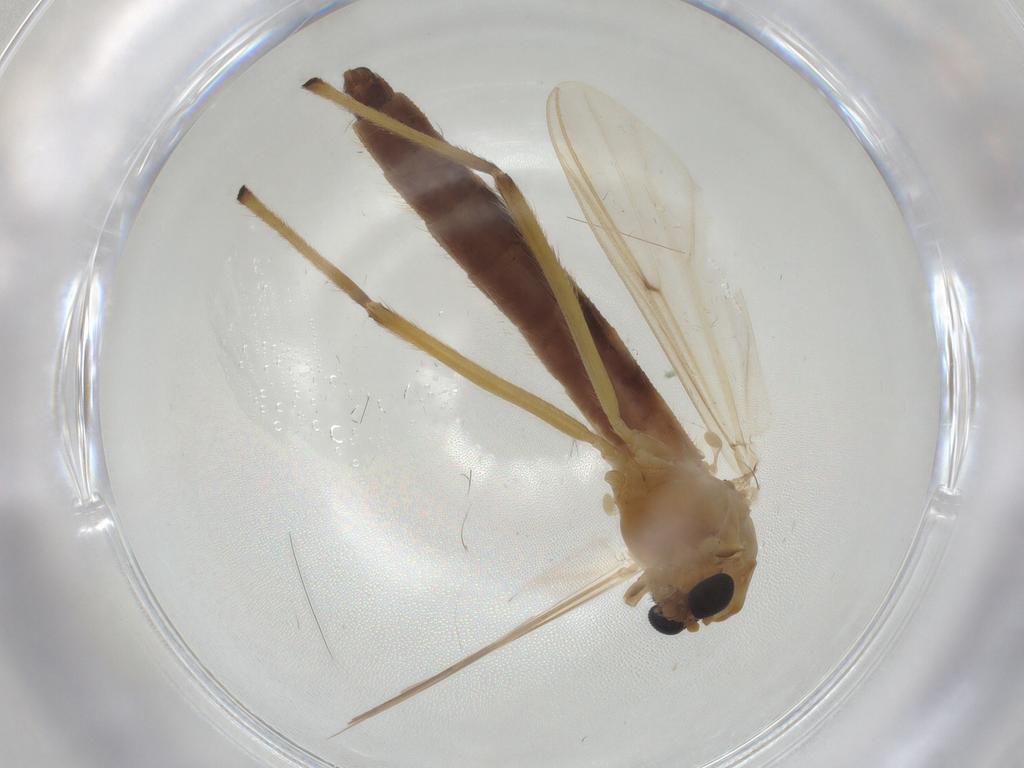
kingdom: Animalia
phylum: Arthropoda
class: Insecta
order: Diptera
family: Chironomidae
